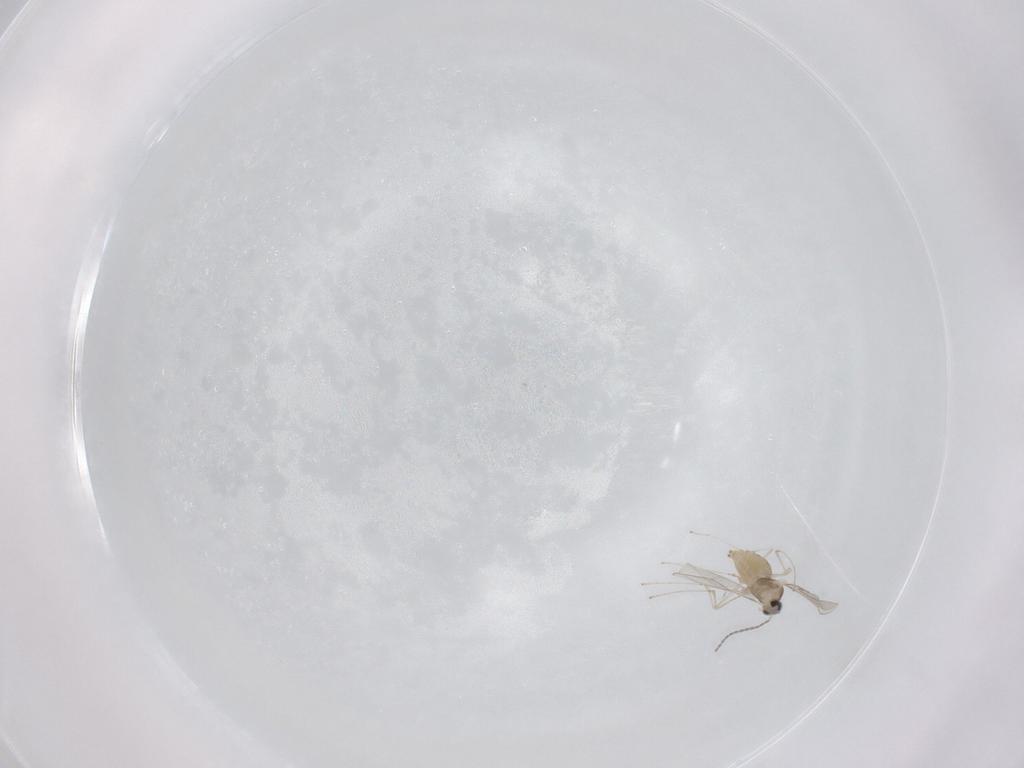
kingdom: Animalia
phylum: Arthropoda
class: Insecta
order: Diptera
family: Cecidomyiidae
